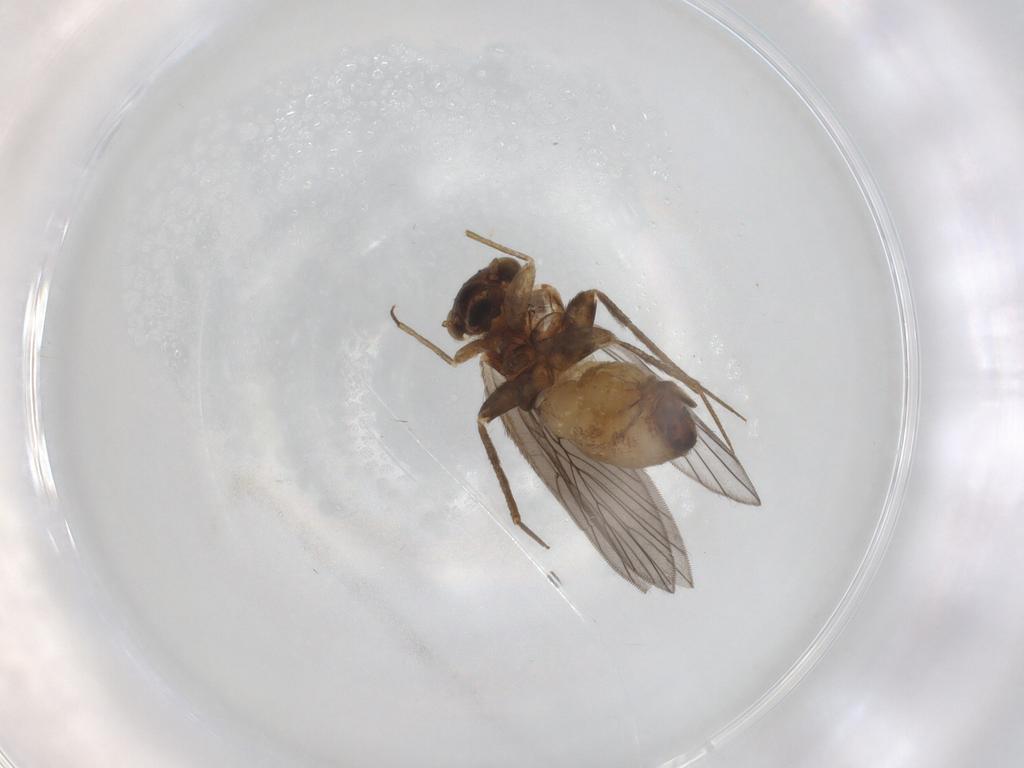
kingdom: Animalia
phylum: Arthropoda
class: Insecta
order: Psocodea
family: Lepidopsocidae
